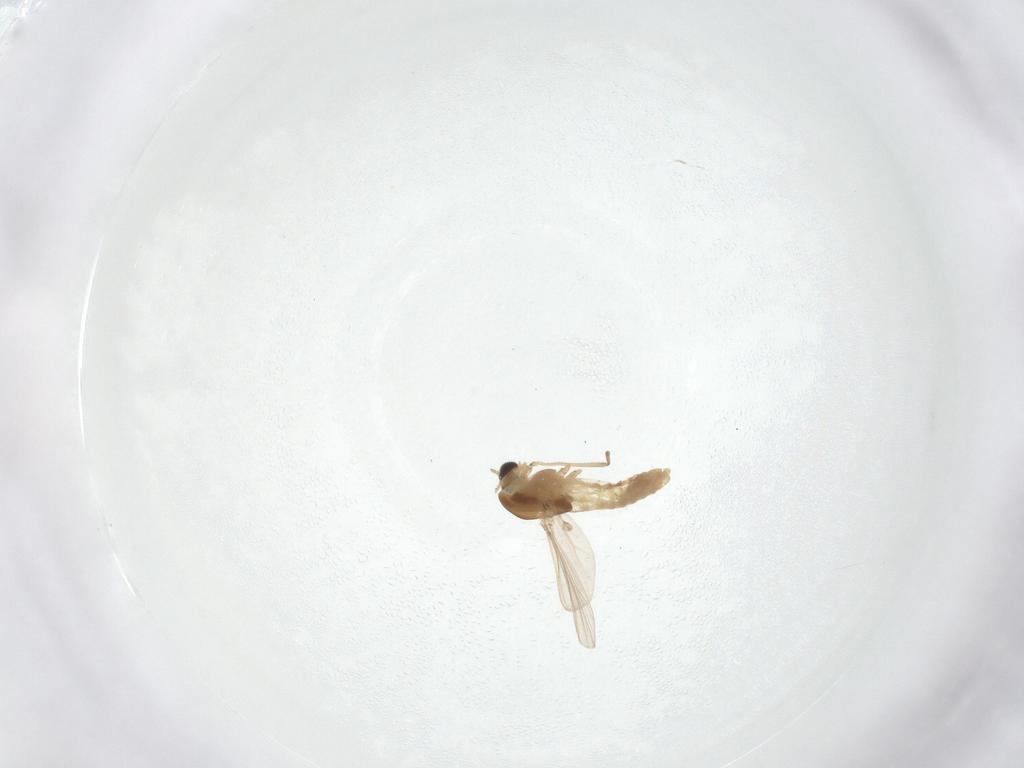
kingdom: Animalia
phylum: Arthropoda
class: Insecta
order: Diptera
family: Cecidomyiidae
